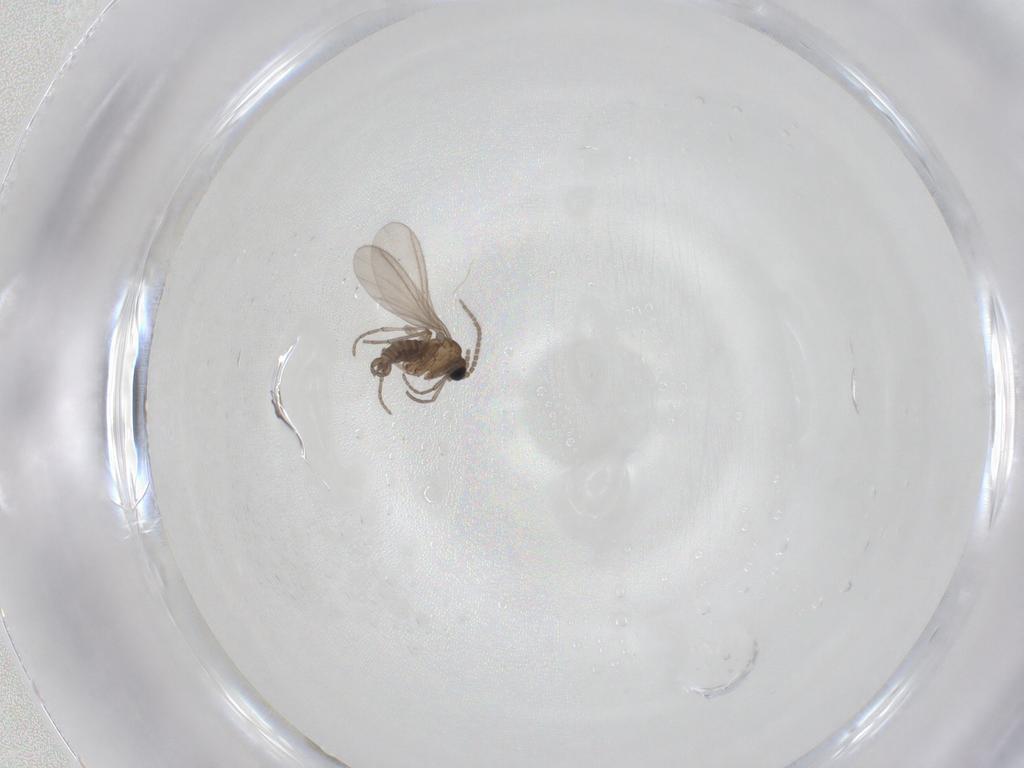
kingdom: Animalia
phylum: Arthropoda
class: Insecta
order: Diptera
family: Sciaridae
